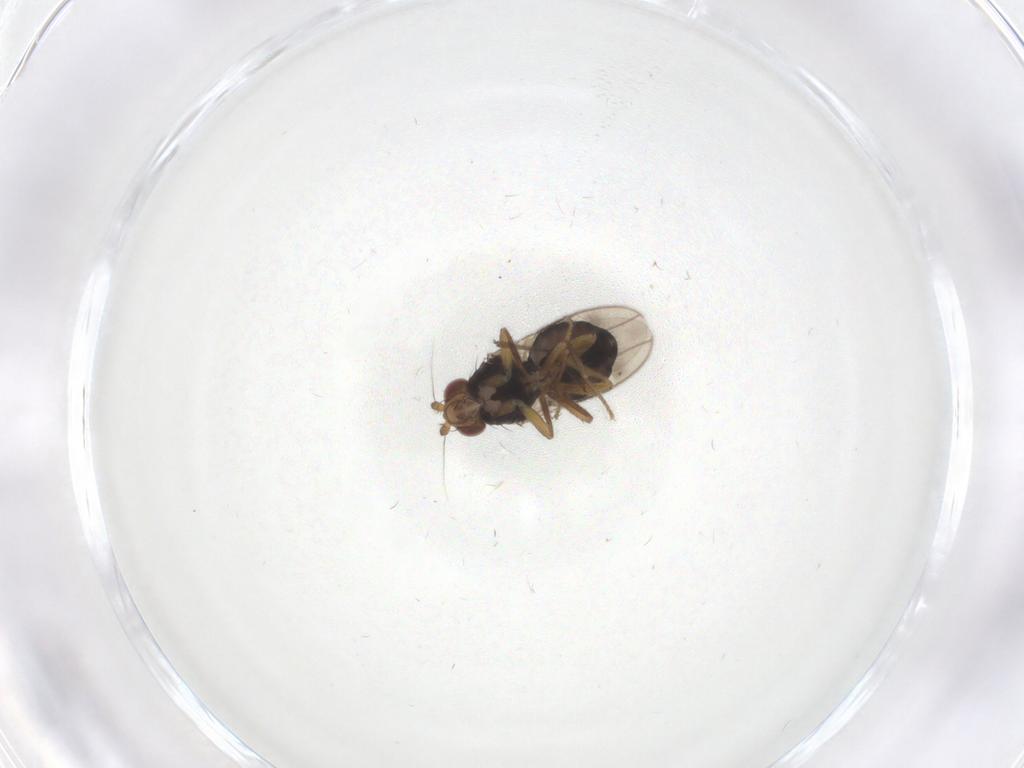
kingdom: Animalia
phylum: Arthropoda
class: Insecta
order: Diptera
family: Sphaeroceridae
